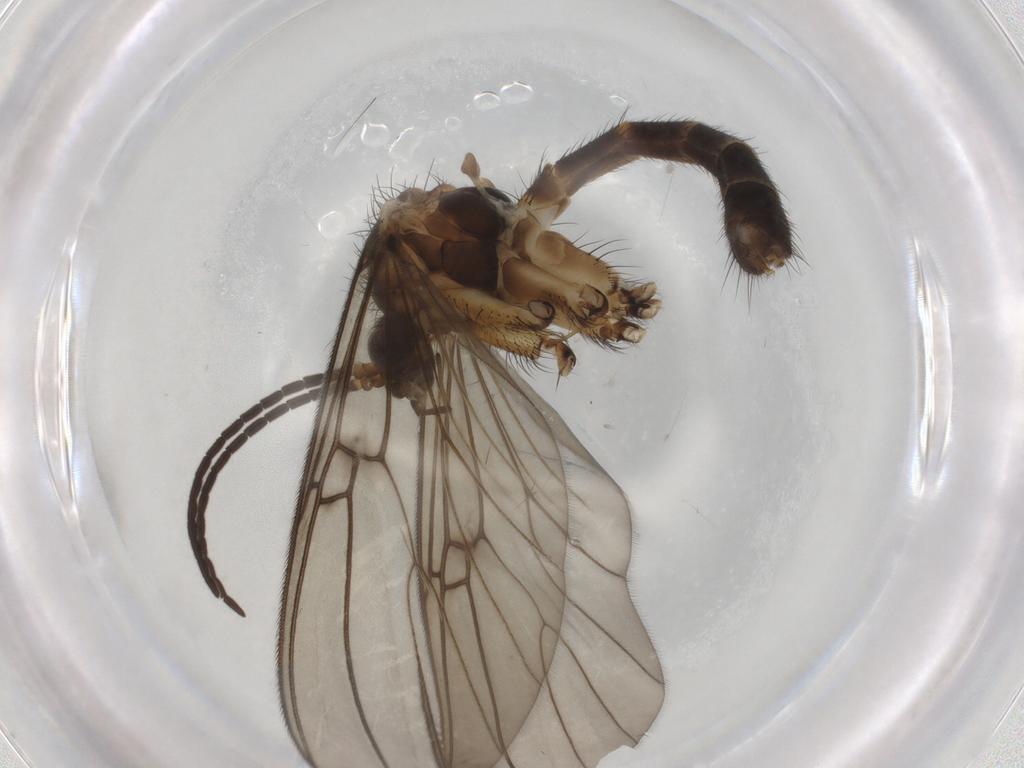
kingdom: Animalia
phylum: Arthropoda
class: Insecta
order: Diptera
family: Mycetophilidae
